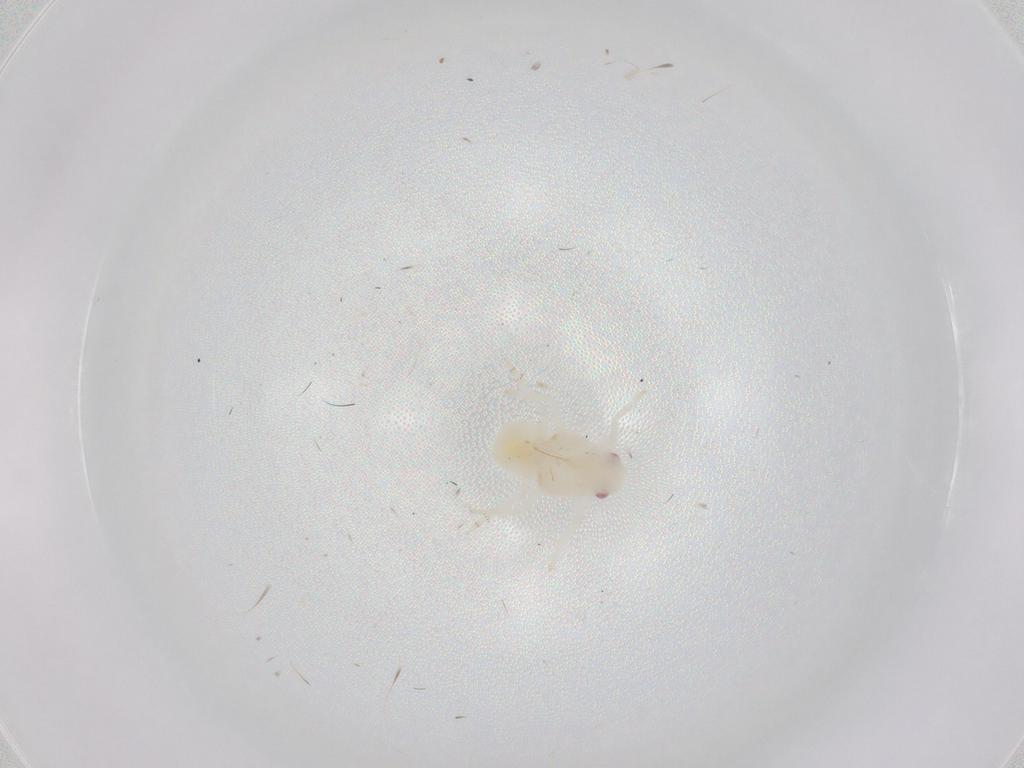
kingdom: Animalia
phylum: Arthropoda
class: Insecta
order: Hemiptera
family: Flatidae
